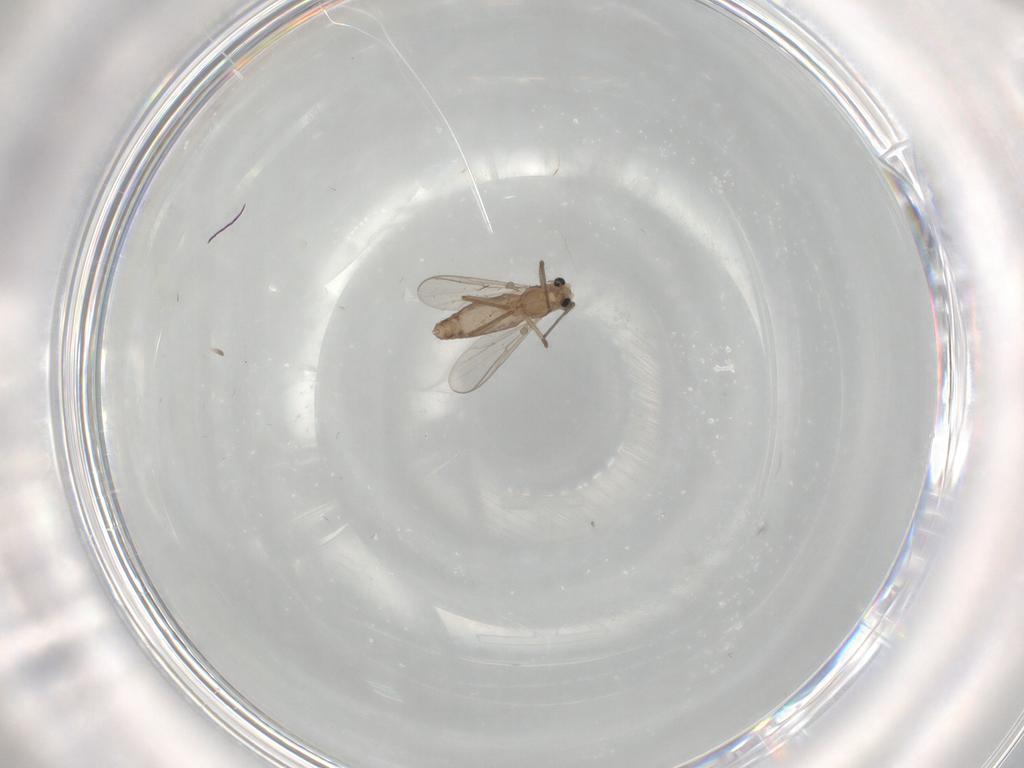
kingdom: Animalia
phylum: Arthropoda
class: Insecta
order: Diptera
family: Chironomidae
